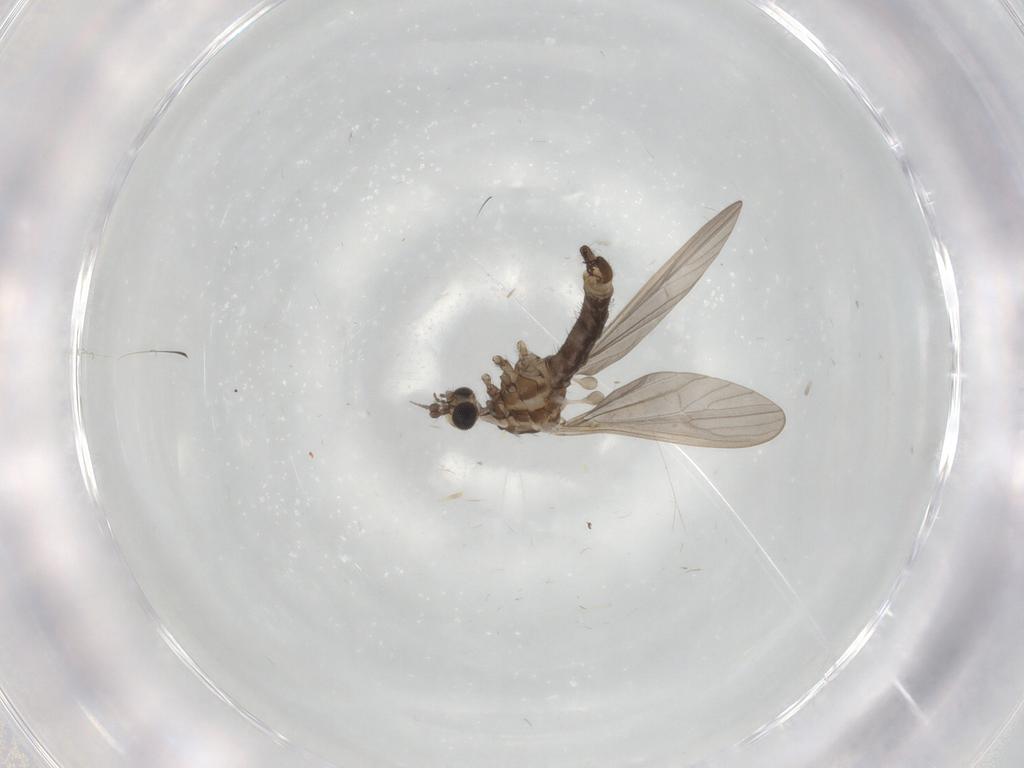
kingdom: Animalia
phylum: Arthropoda
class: Insecta
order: Diptera
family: Limoniidae
